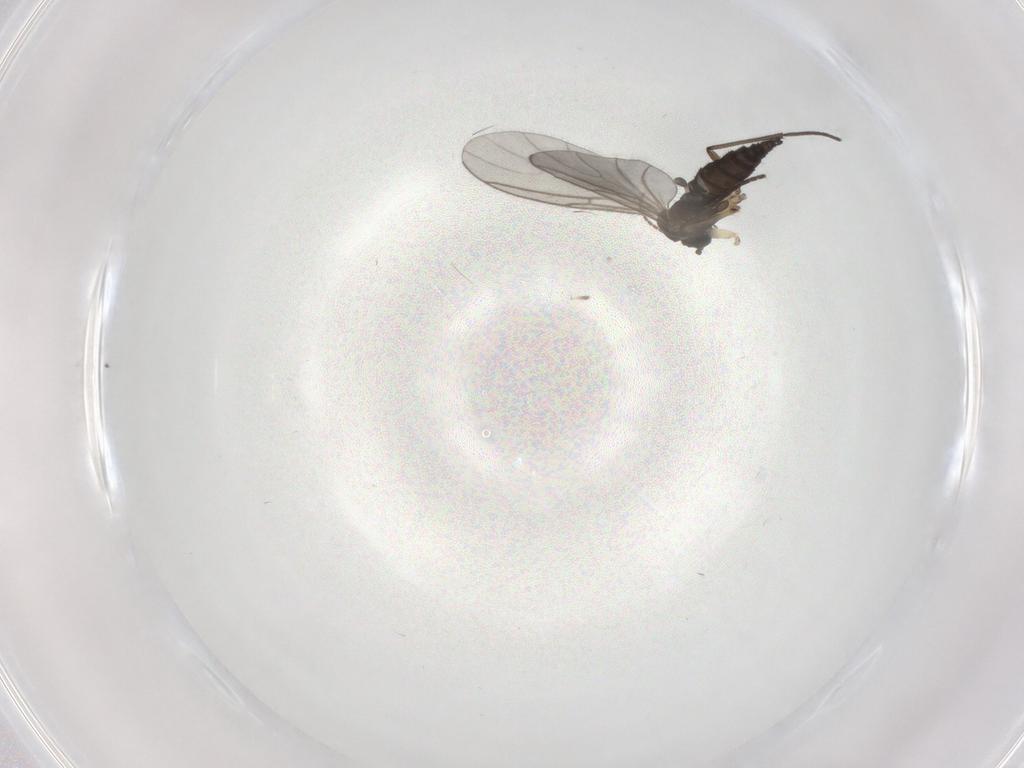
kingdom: Animalia
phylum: Arthropoda
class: Insecta
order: Diptera
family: Sciaridae
